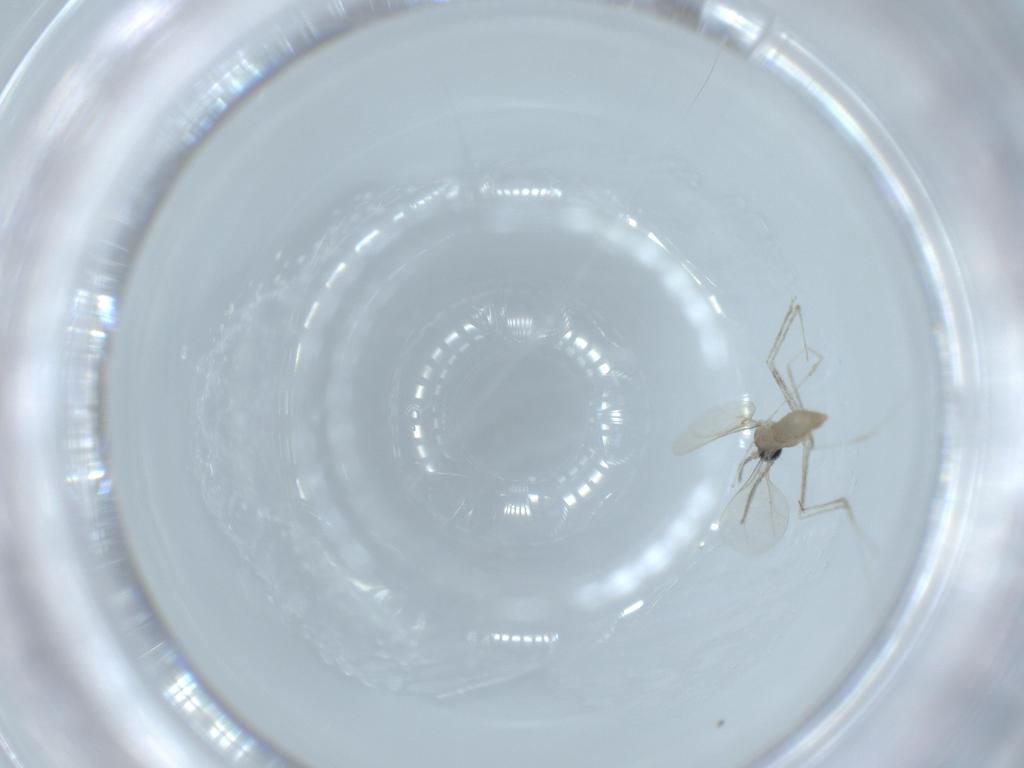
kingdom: Animalia
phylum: Arthropoda
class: Insecta
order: Diptera
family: Cecidomyiidae
